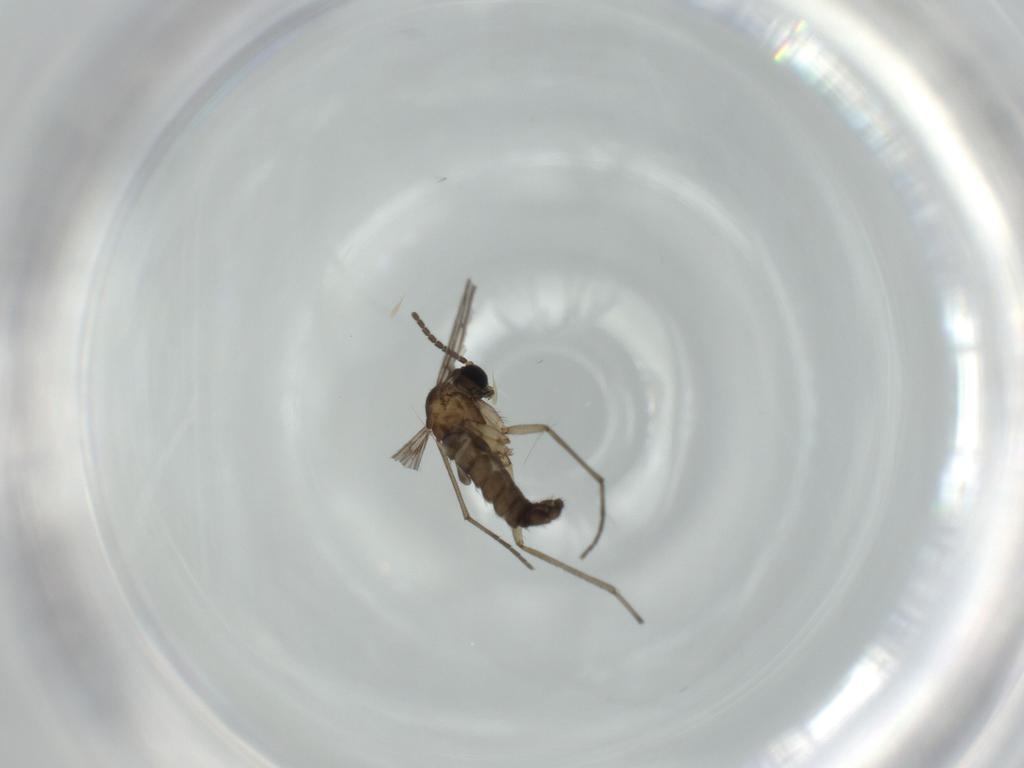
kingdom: Animalia
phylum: Arthropoda
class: Insecta
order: Diptera
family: Sciaridae
